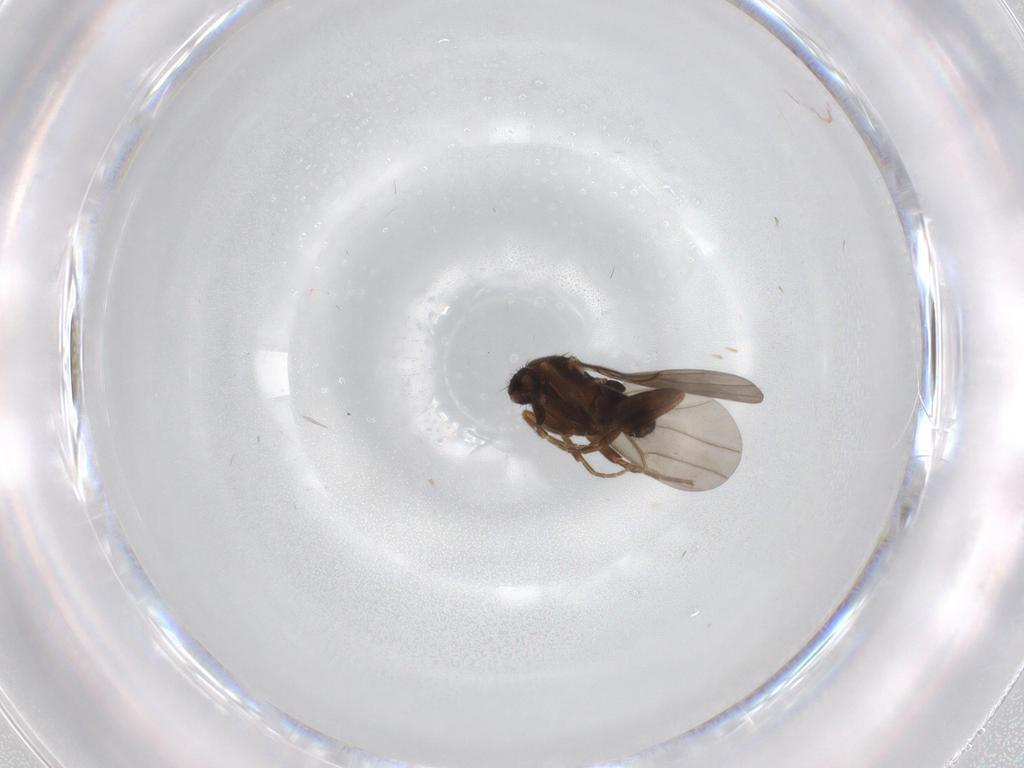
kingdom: Animalia
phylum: Arthropoda
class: Insecta
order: Diptera
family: Phoridae
